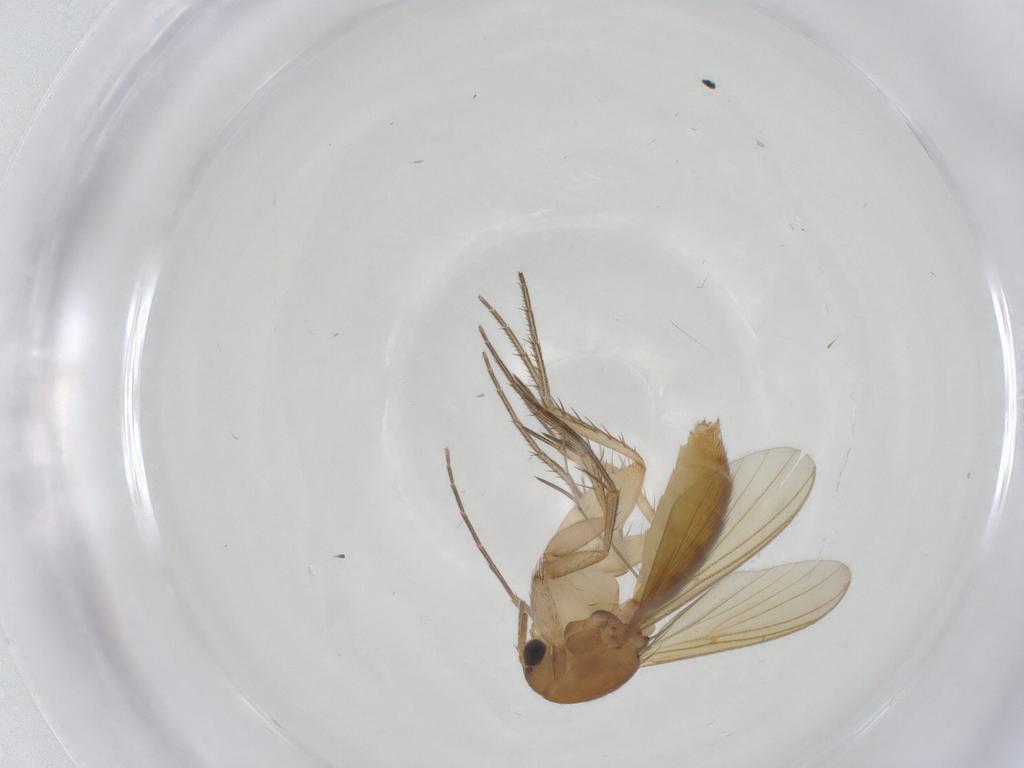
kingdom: Animalia
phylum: Arthropoda
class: Insecta
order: Diptera
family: Mycetophilidae
